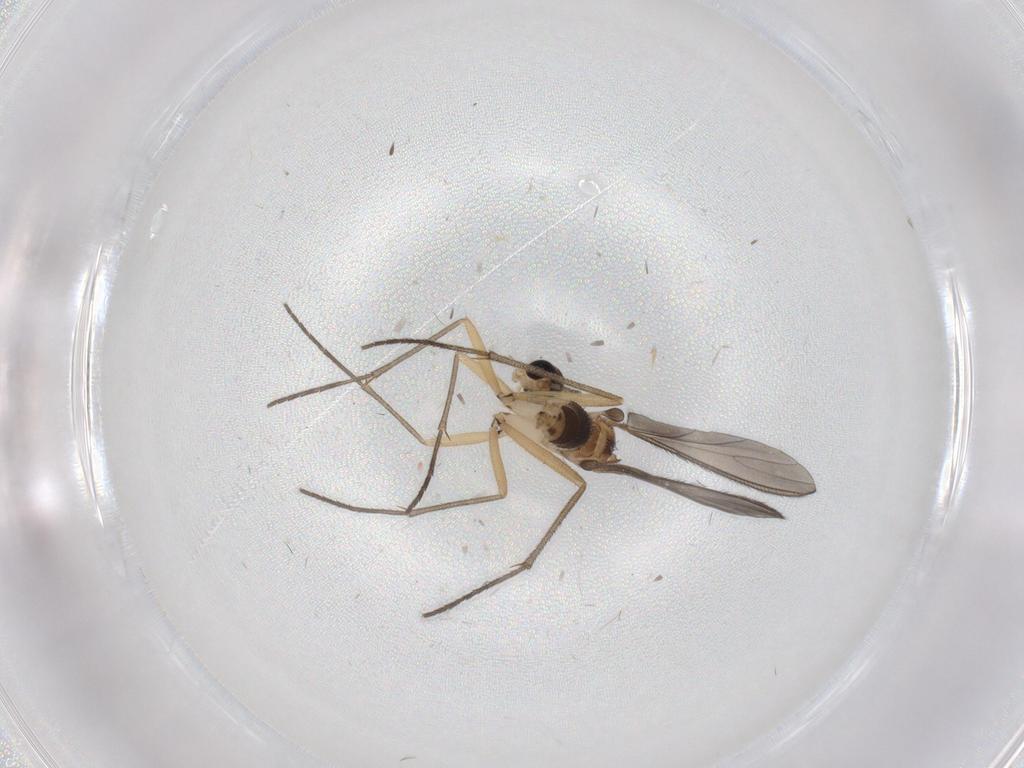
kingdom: Animalia
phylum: Arthropoda
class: Insecta
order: Diptera
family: Sciaridae
